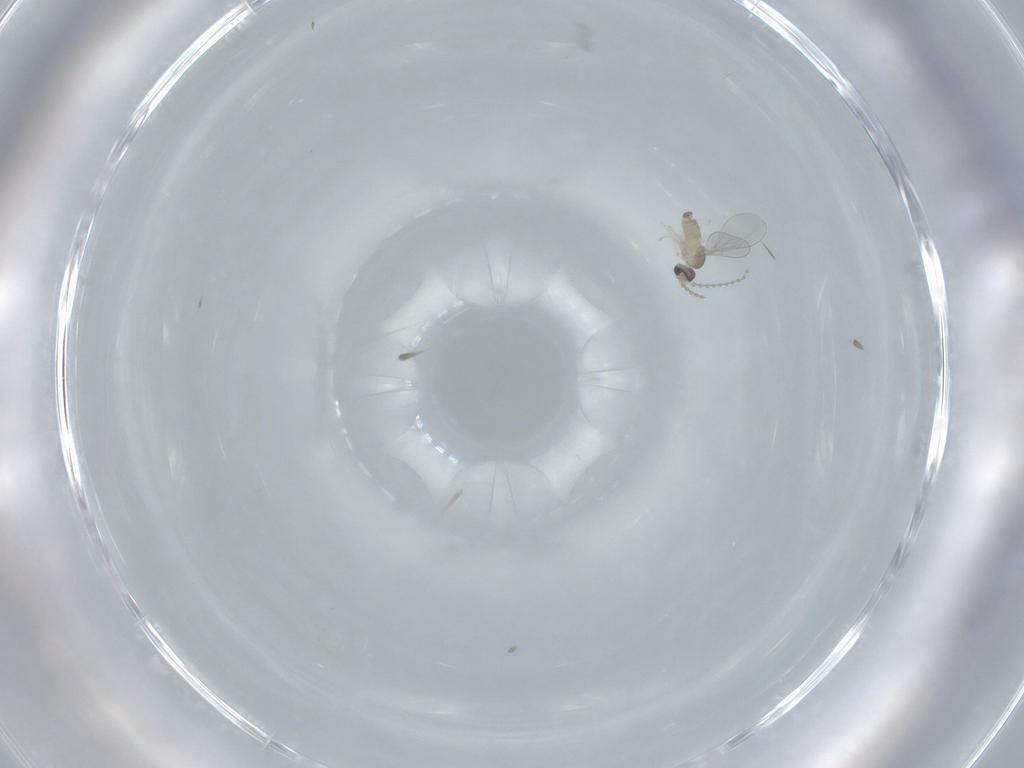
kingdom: Animalia
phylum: Arthropoda
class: Insecta
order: Diptera
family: Cecidomyiidae
